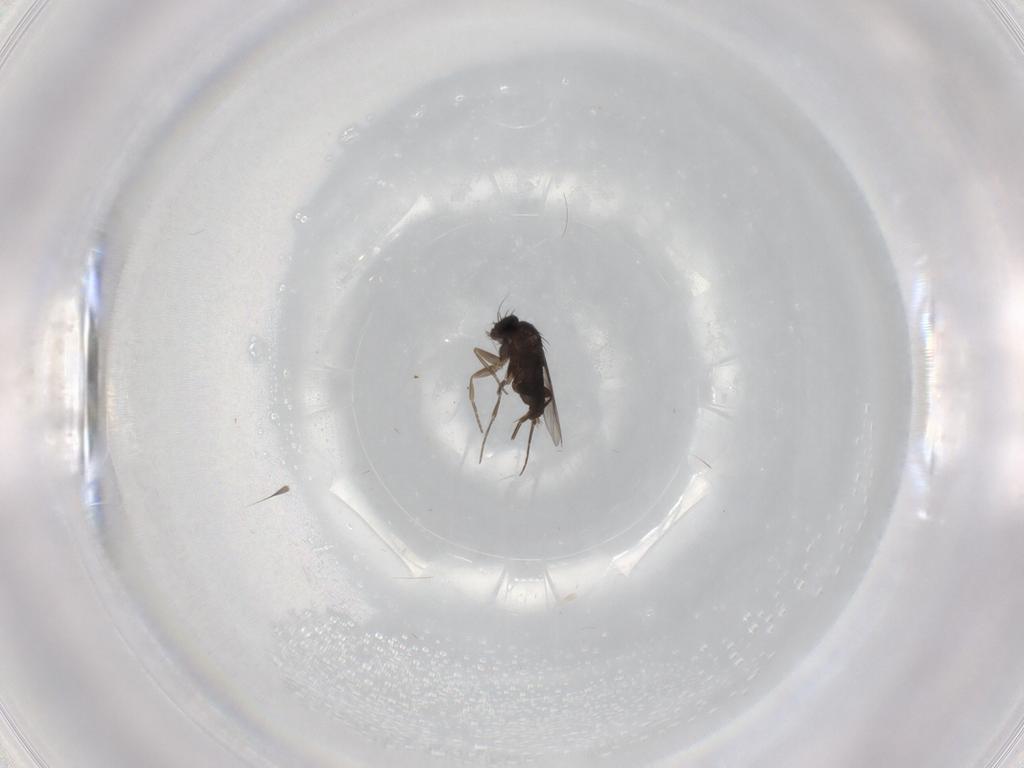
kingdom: Animalia
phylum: Arthropoda
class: Insecta
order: Diptera
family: Phoridae
